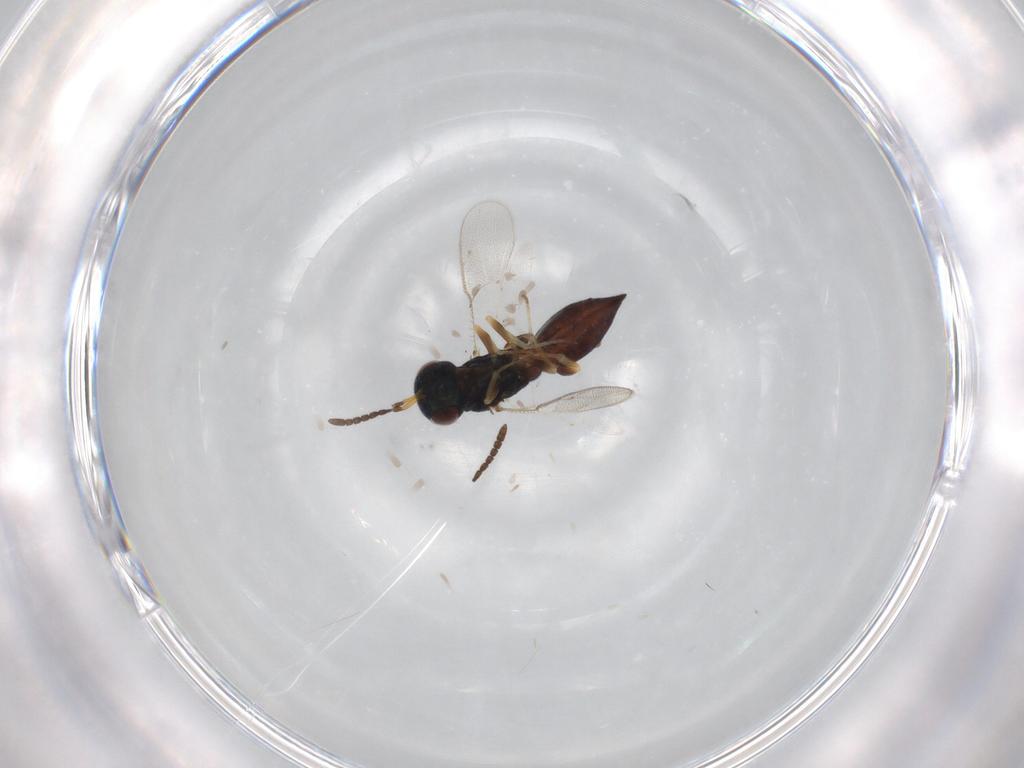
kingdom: Animalia
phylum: Arthropoda
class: Insecta
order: Hymenoptera
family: Pteromalidae
